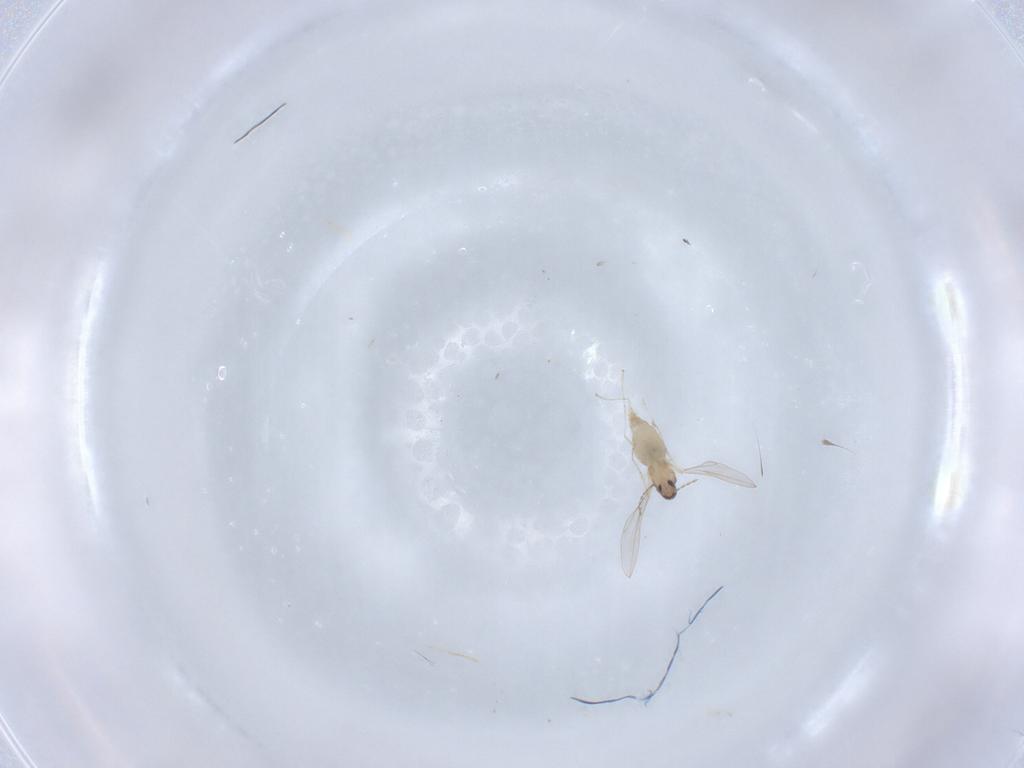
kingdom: Animalia
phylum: Arthropoda
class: Insecta
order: Diptera
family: Cecidomyiidae
